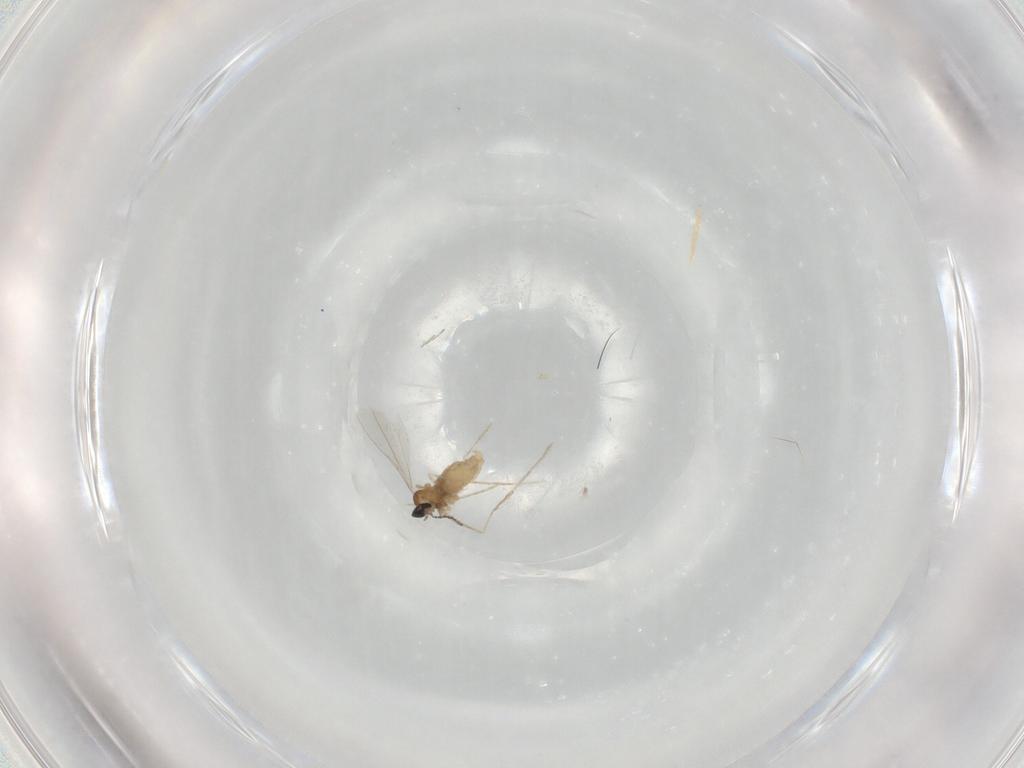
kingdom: Animalia
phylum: Arthropoda
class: Insecta
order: Diptera
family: Cecidomyiidae
